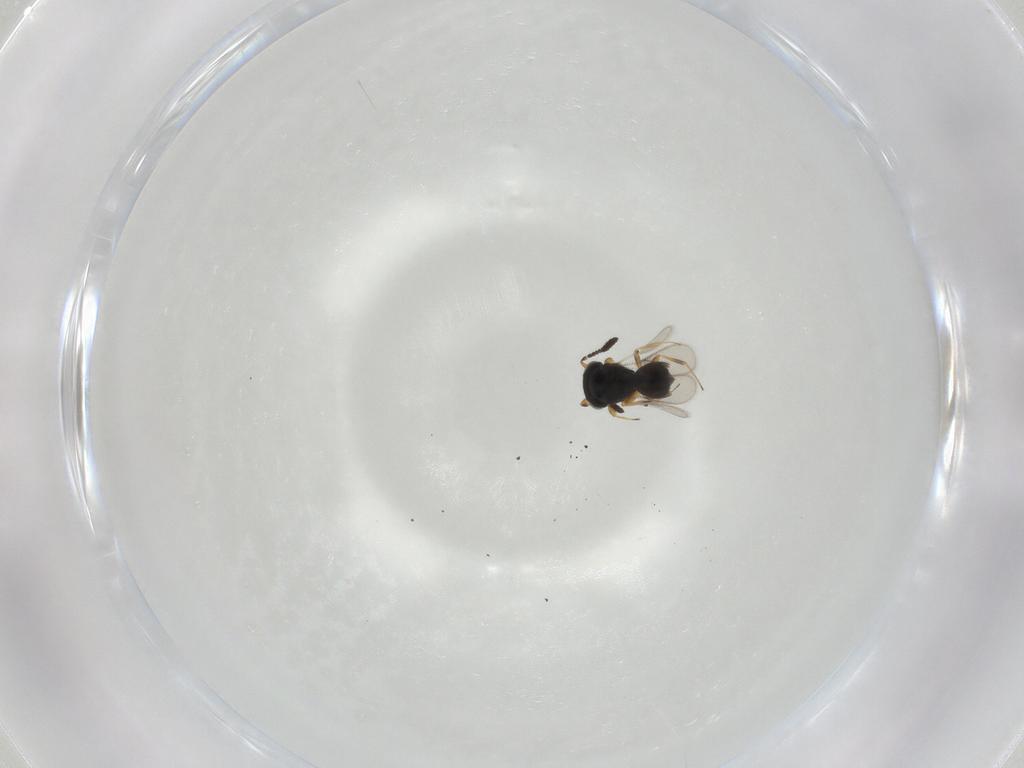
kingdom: Animalia
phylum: Arthropoda
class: Insecta
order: Hymenoptera
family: Scelionidae
